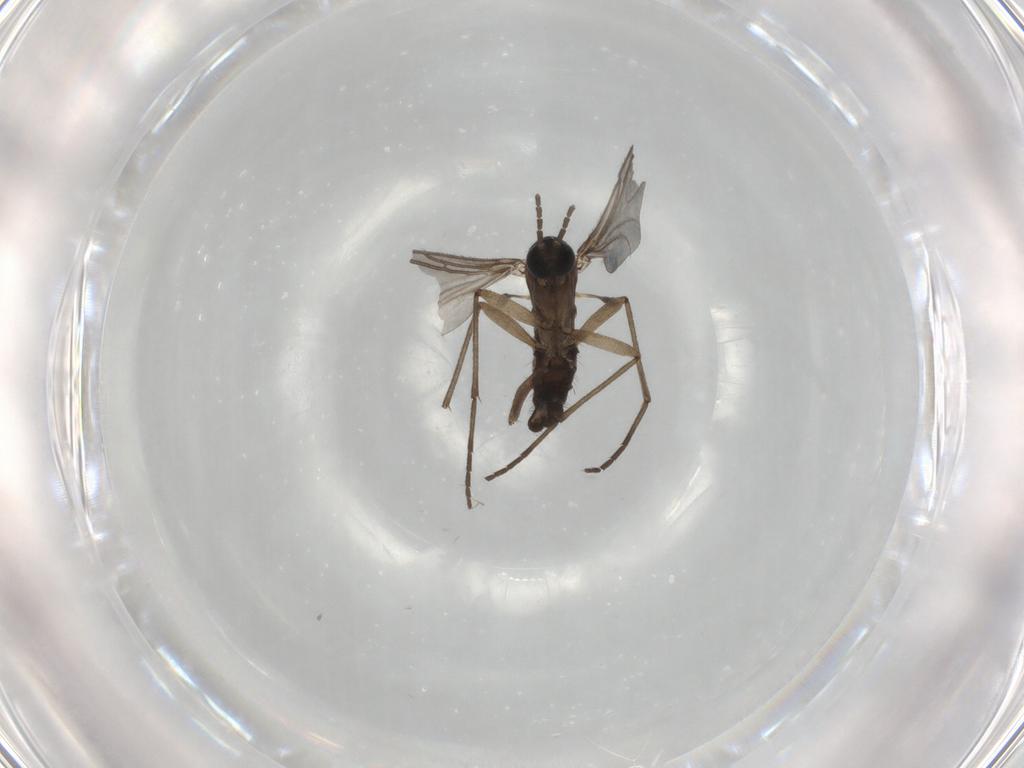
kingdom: Animalia
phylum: Arthropoda
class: Insecta
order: Diptera
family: Sciaridae
